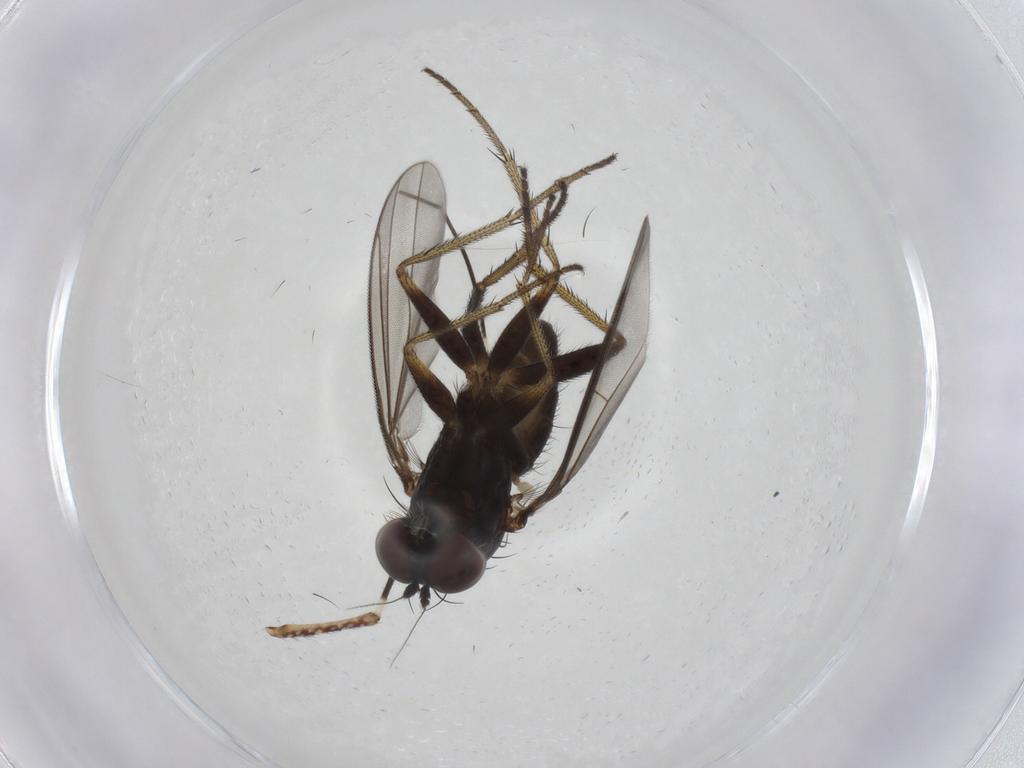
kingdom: Animalia
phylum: Arthropoda
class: Insecta
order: Diptera
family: Dolichopodidae
